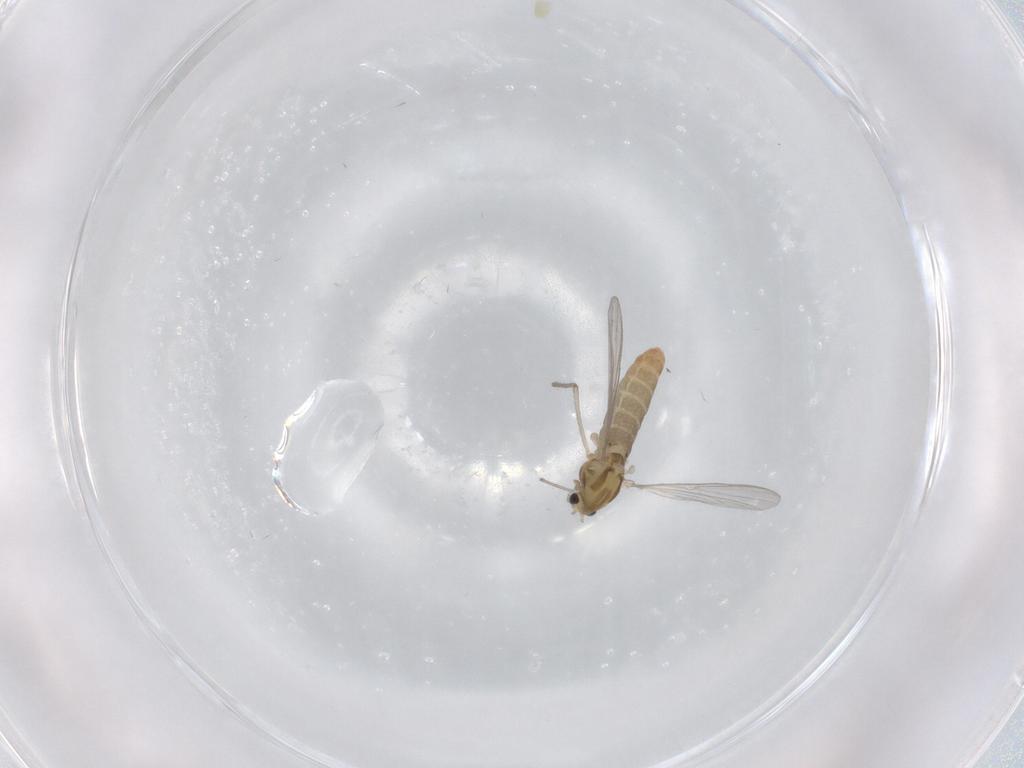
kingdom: Animalia
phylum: Arthropoda
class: Insecta
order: Diptera
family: Chironomidae
